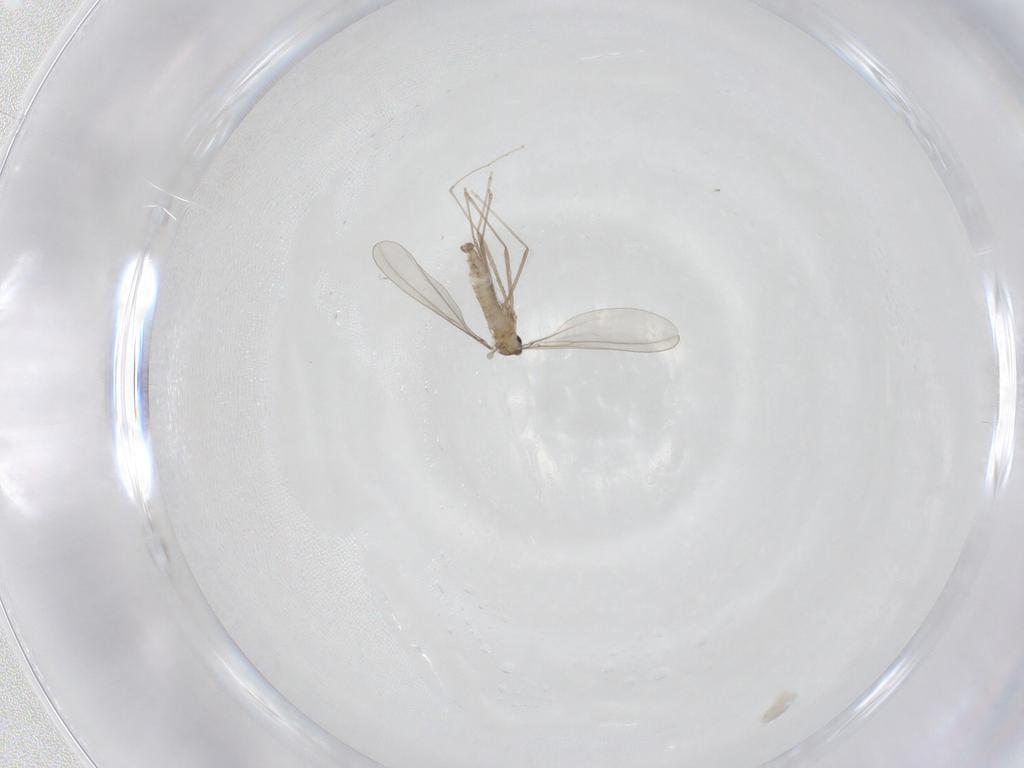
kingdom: Animalia
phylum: Arthropoda
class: Insecta
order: Diptera
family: Cecidomyiidae
